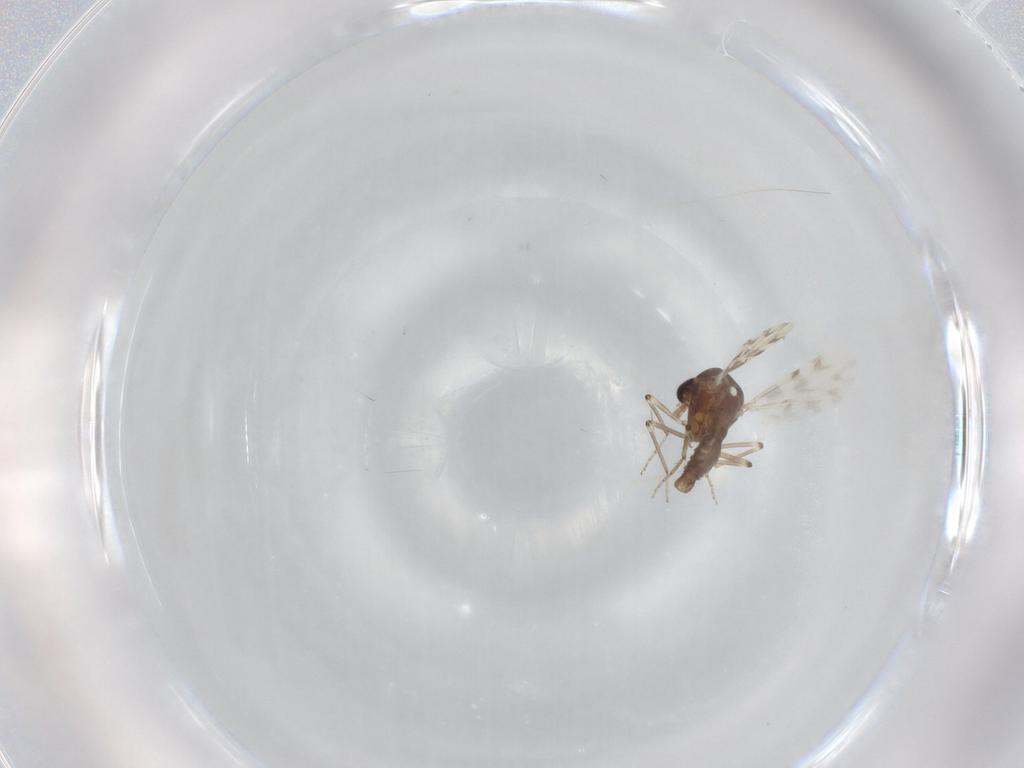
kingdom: Animalia
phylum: Arthropoda
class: Insecta
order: Diptera
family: Ceratopogonidae
